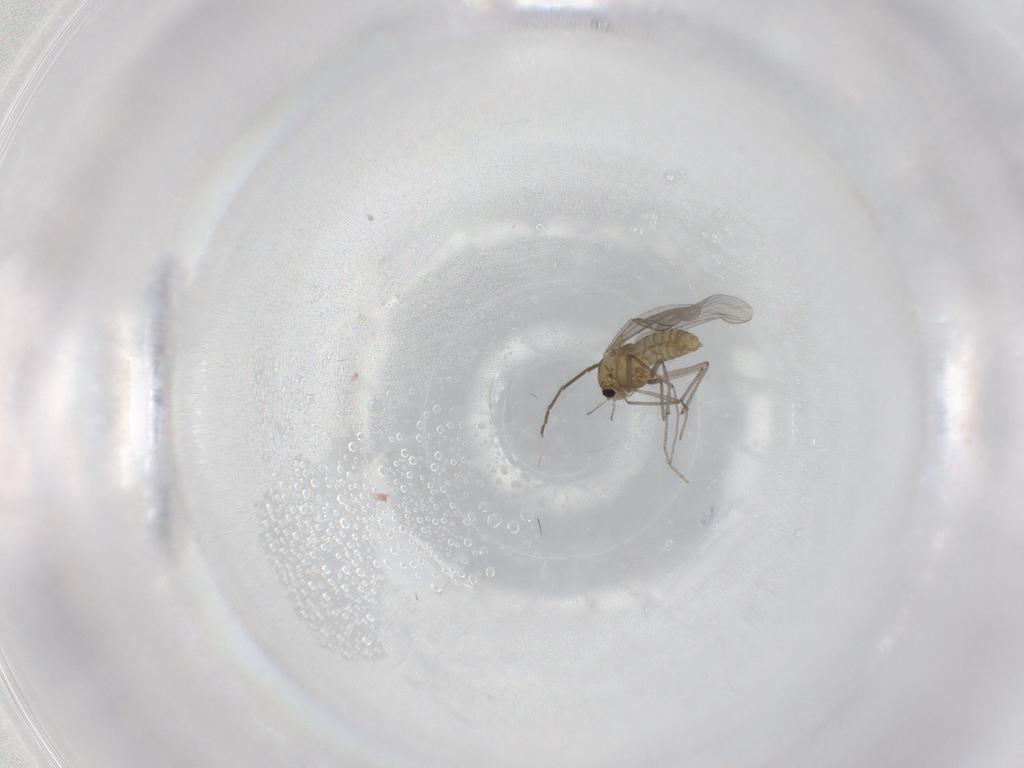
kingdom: Animalia
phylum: Arthropoda
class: Insecta
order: Diptera
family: Chironomidae
